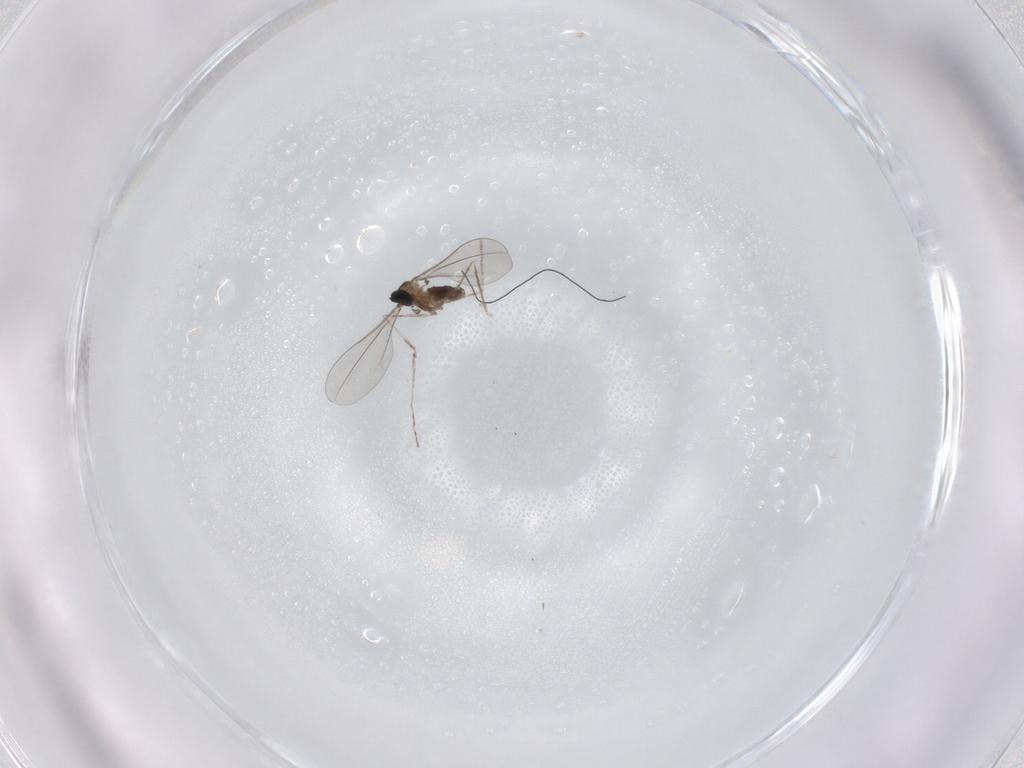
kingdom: Animalia
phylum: Arthropoda
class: Insecta
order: Diptera
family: Cecidomyiidae
